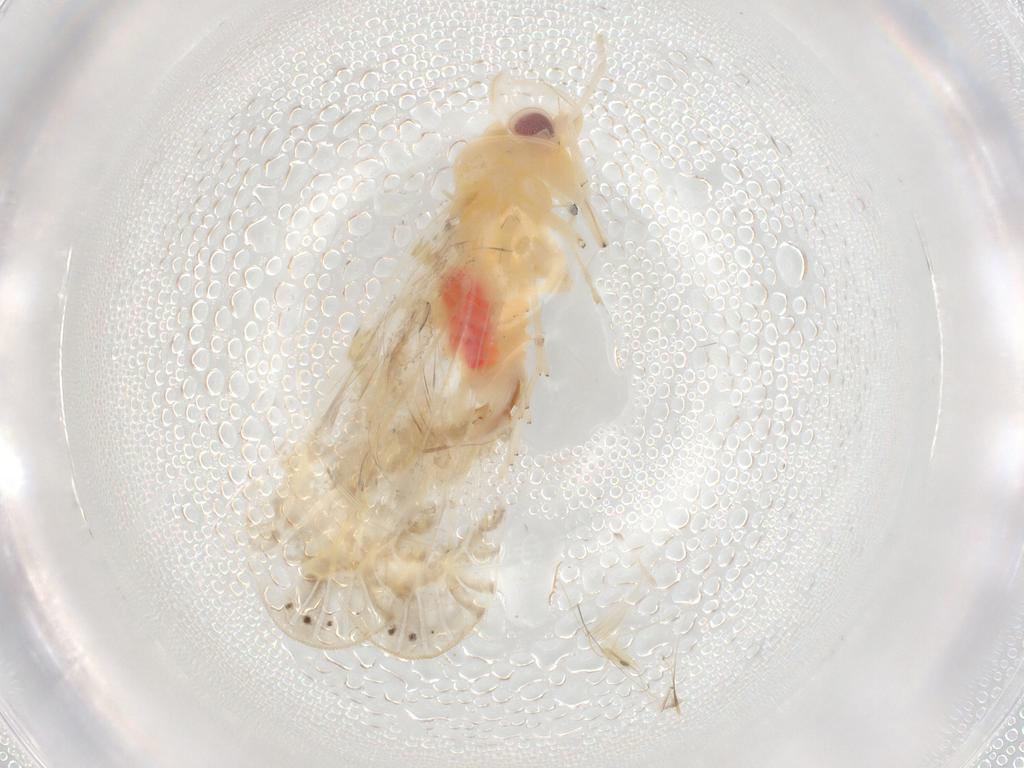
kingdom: Animalia
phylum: Arthropoda
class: Insecta
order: Hemiptera
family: Derbidae
